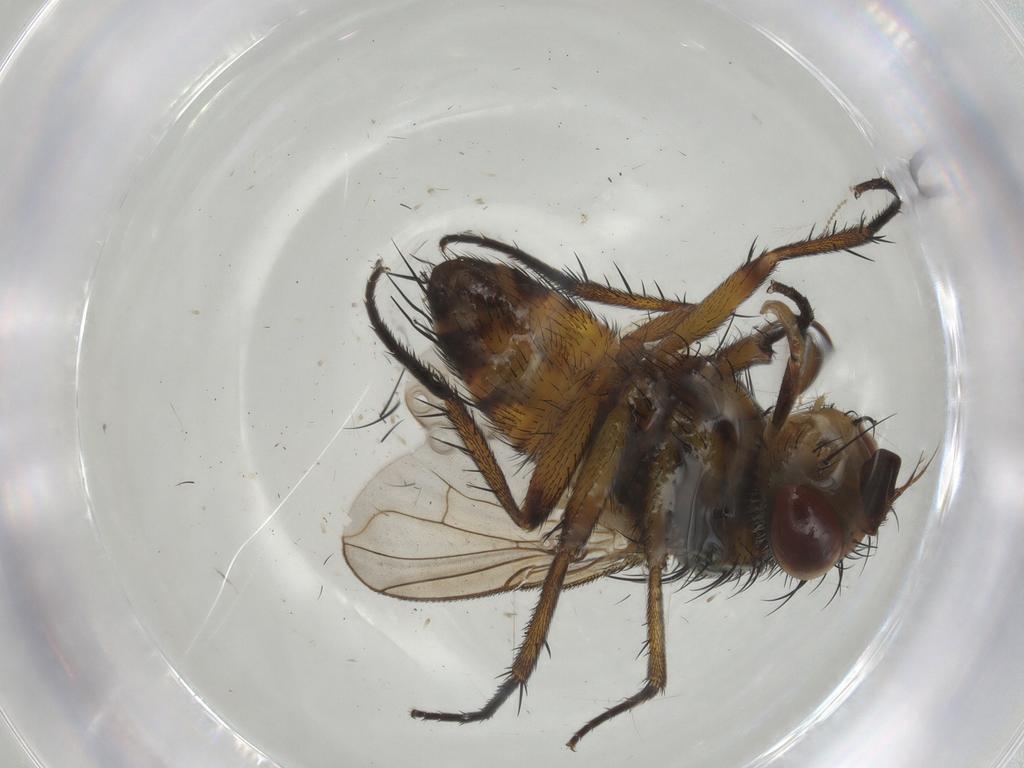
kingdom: Animalia
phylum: Arthropoda
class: Insecta
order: Diptera
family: Tachinidae
